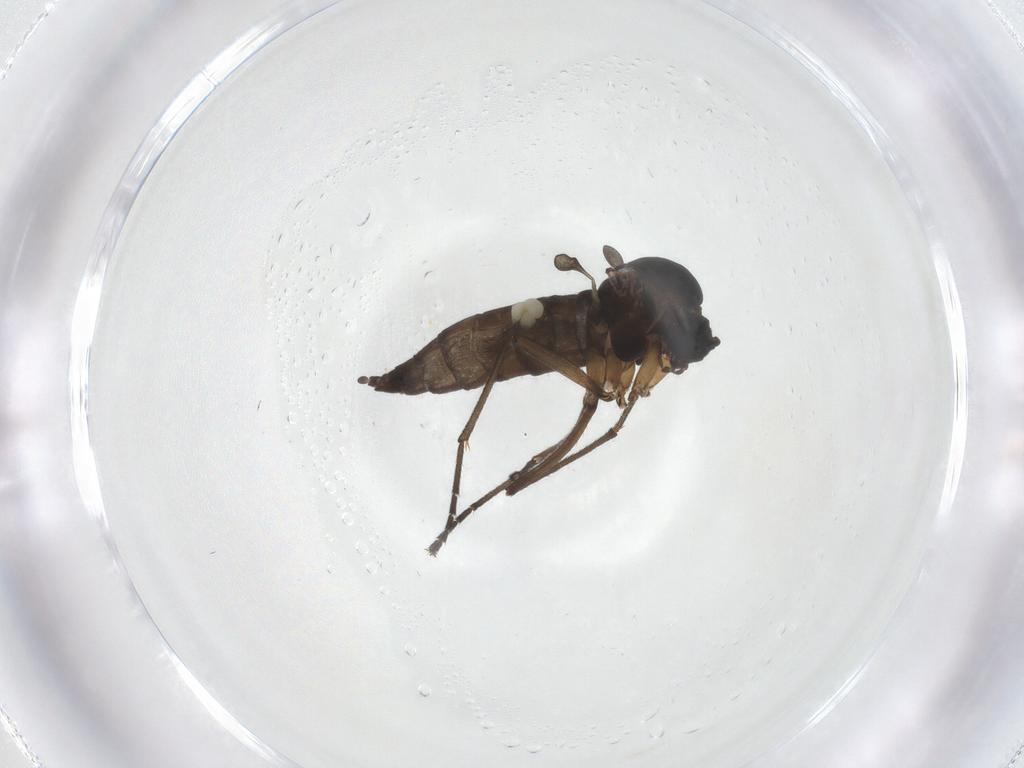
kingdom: Animalia
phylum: Arthropoda
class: Insecta
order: Diptera
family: Sciaridae
